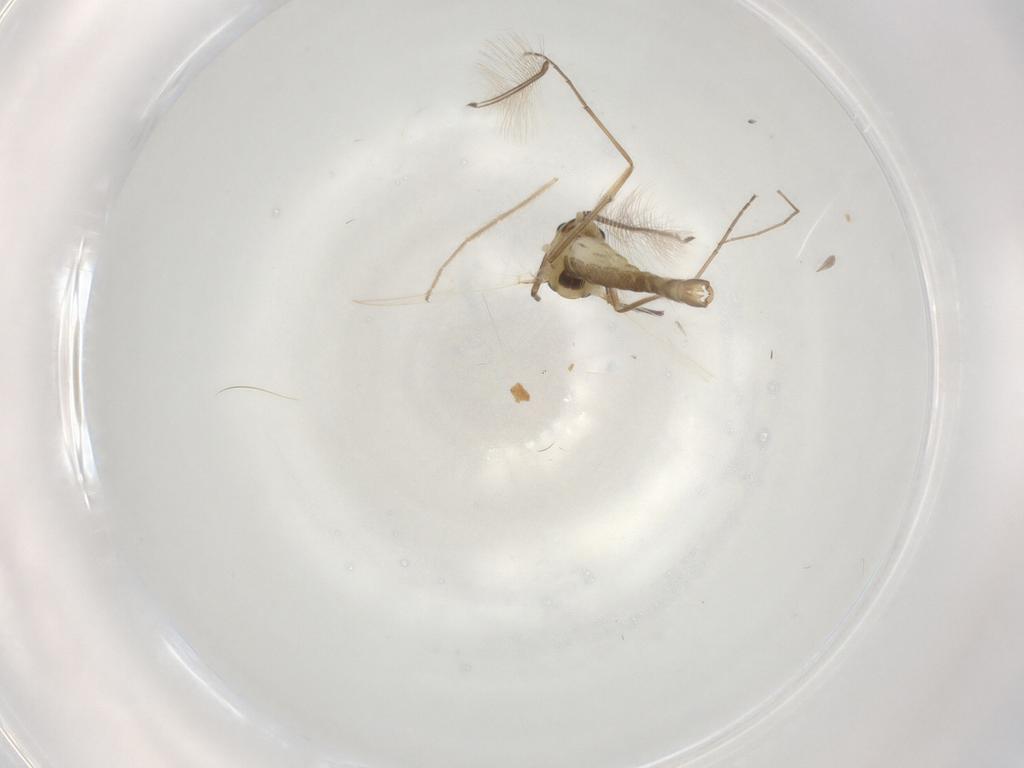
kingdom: Animalia
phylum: Arthropoda
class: Insecta
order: Diptera
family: Chironomidae
